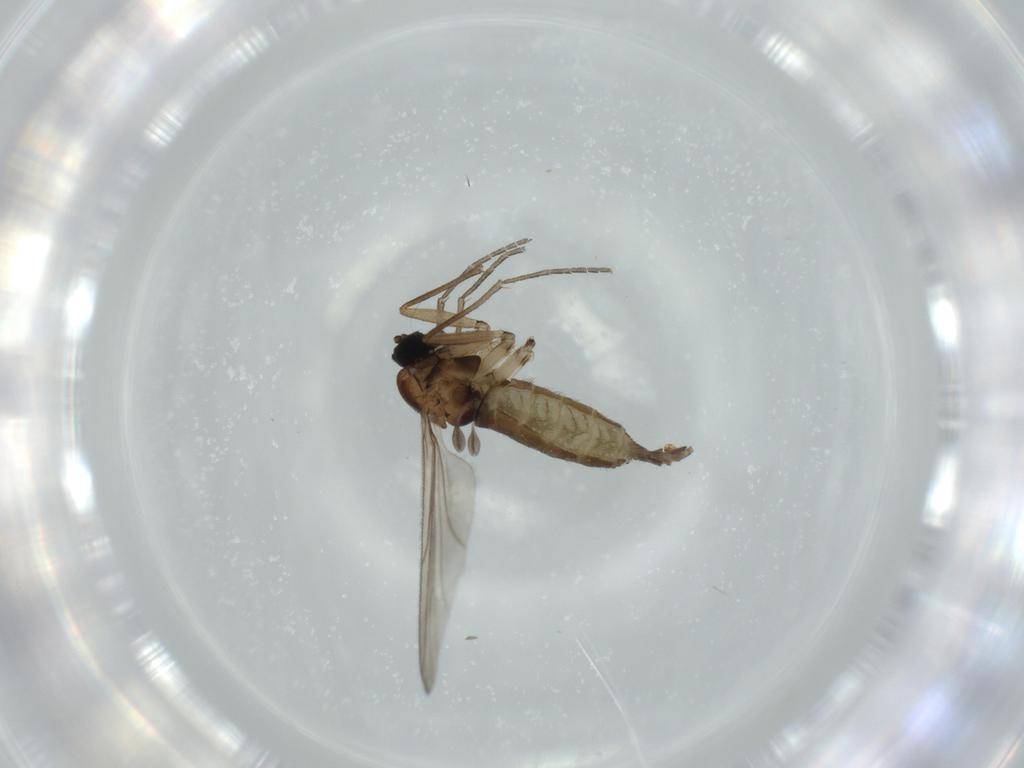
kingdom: Animalia
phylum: Arthropoda
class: Insecta
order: Diptera
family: Sciaridae
